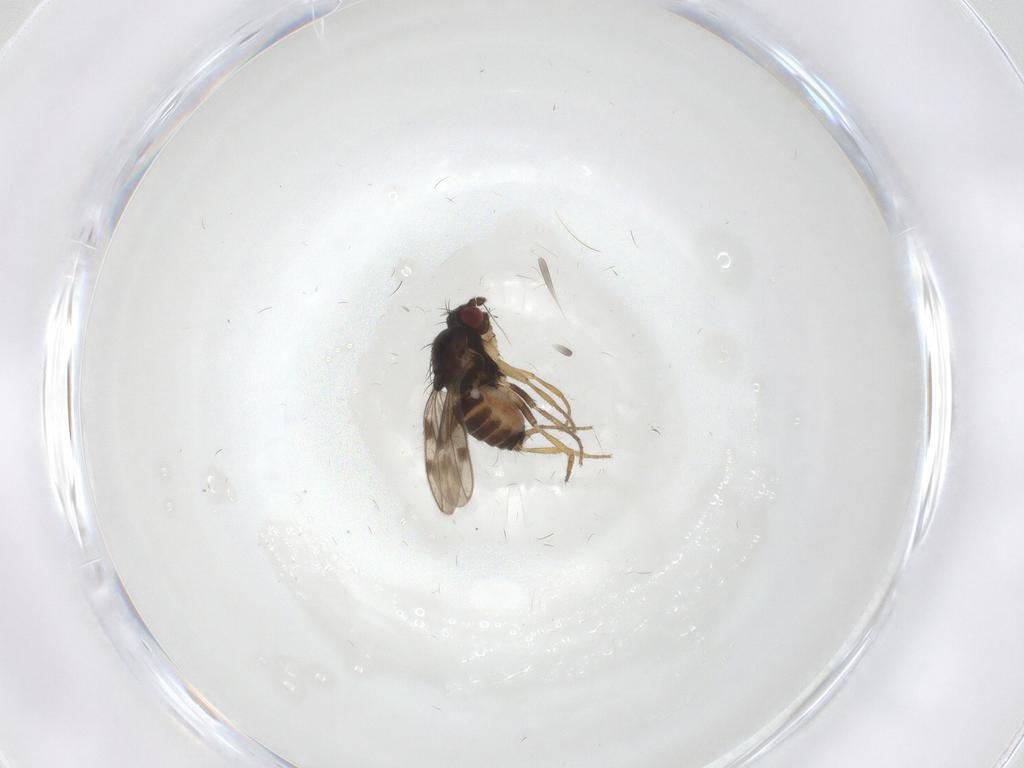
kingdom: Animalia
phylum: Arthropoda
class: Insecta
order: Diptera
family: Sphaeroceridae
